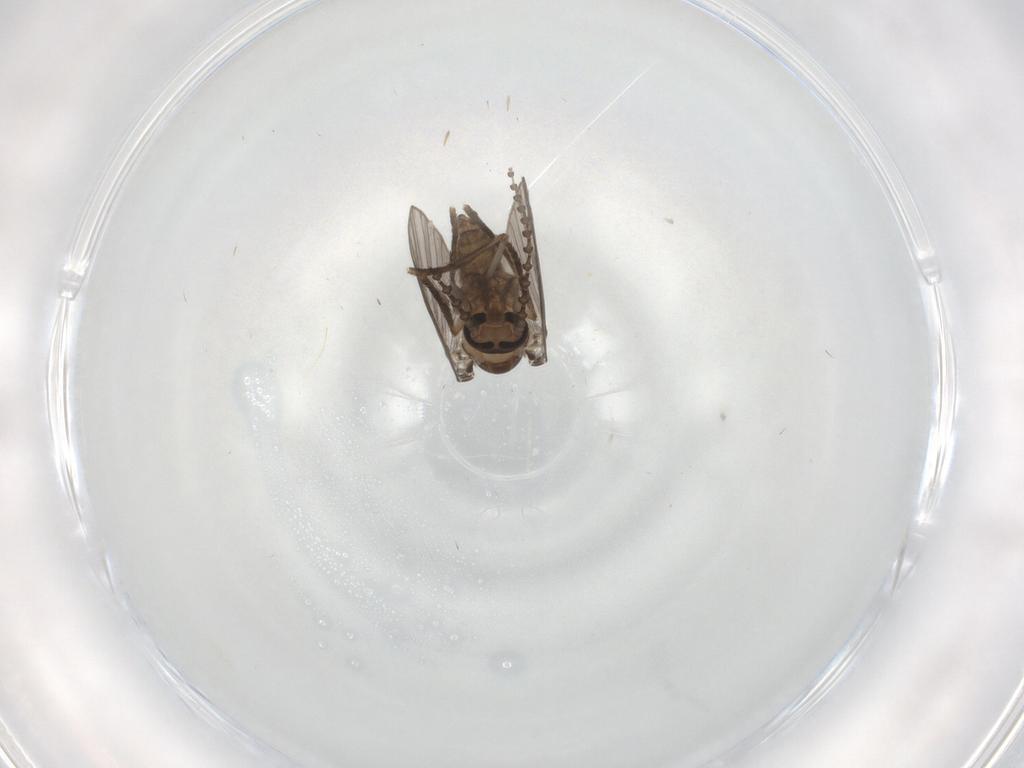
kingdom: Animalia
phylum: Arthropoda
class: Insecta
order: Diptera
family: Psychodidae
